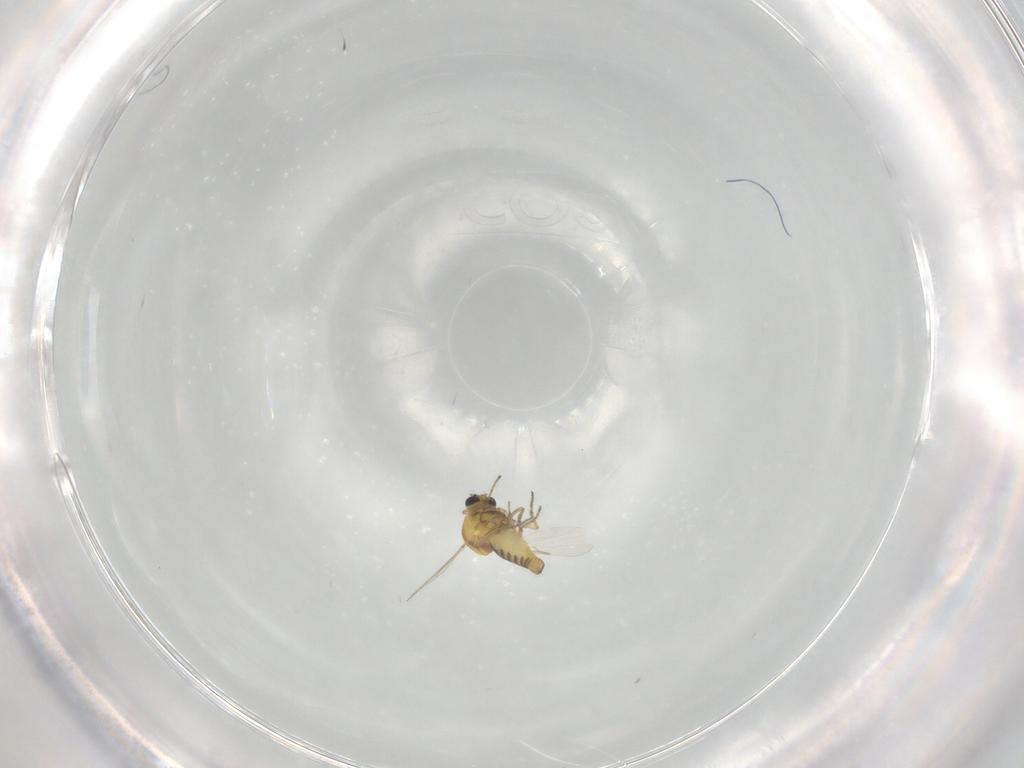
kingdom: Animalia
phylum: Arthropoda
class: Insecta
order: Diptera
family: Ceratopogonidae
